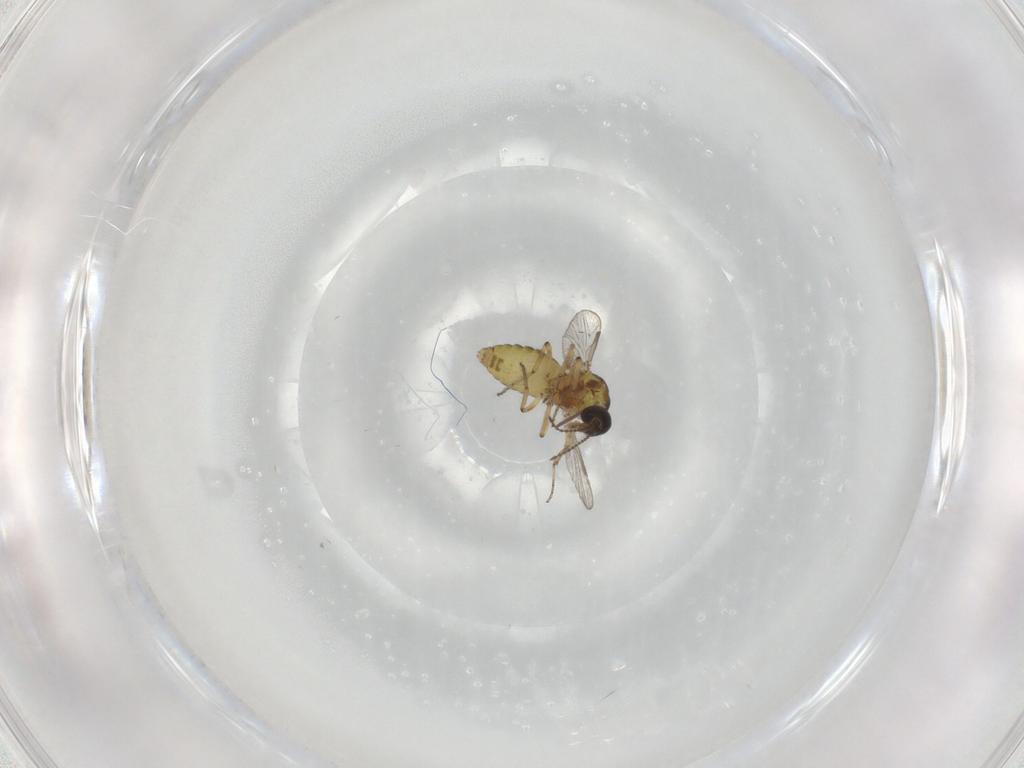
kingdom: Animalia
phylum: Arthropoda
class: Insecta
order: Diptera
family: Ceratopogonidae
